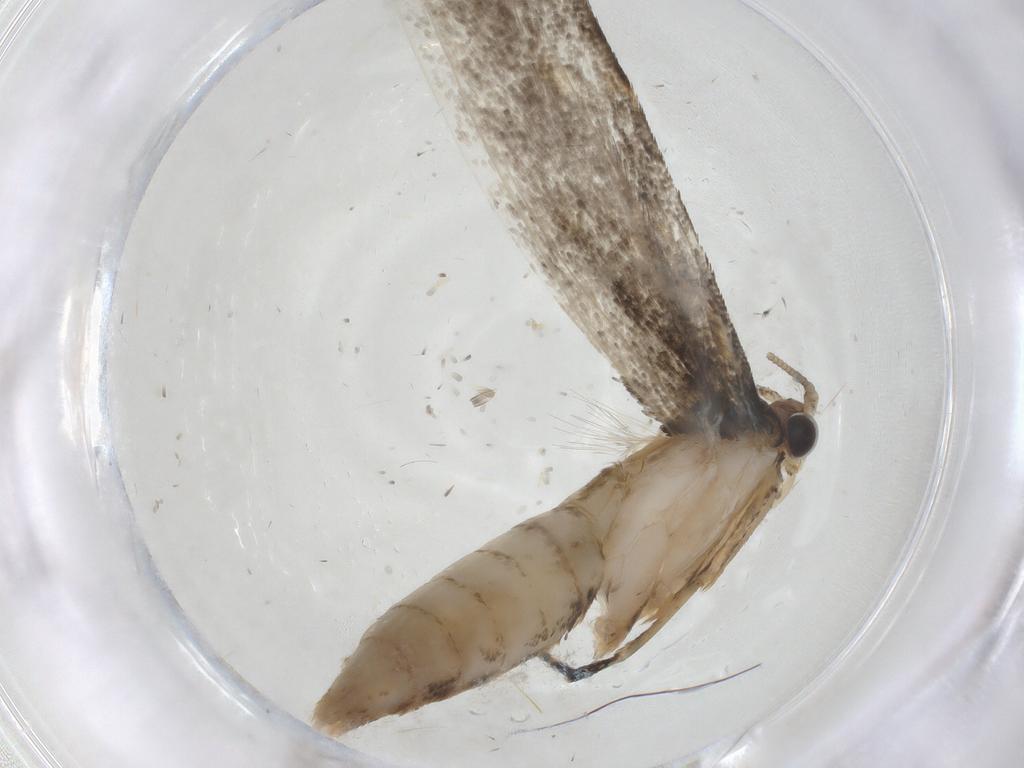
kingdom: Animalia
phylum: Arthropoda
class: Insecta
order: Lepidoptera
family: Tineidae
